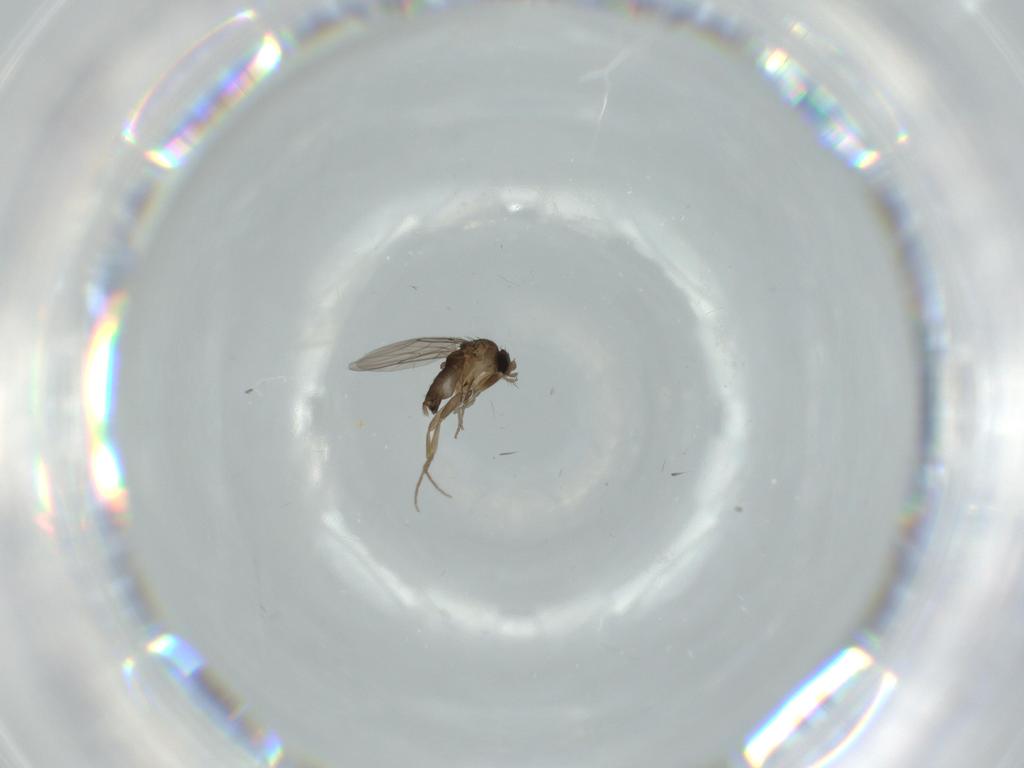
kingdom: Animalia
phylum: Arthropoda
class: Insecta
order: Diptera
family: Phoridae
